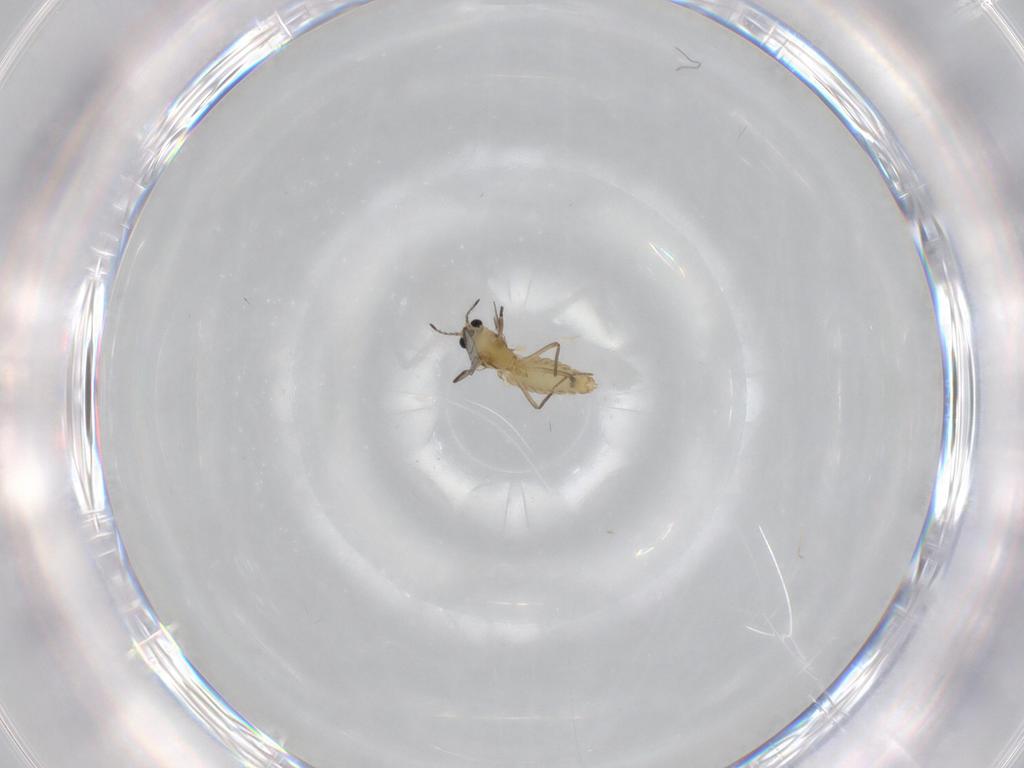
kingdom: Animalia
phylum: Arthropoda
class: Insecta
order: Diptera
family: Chironomidae
